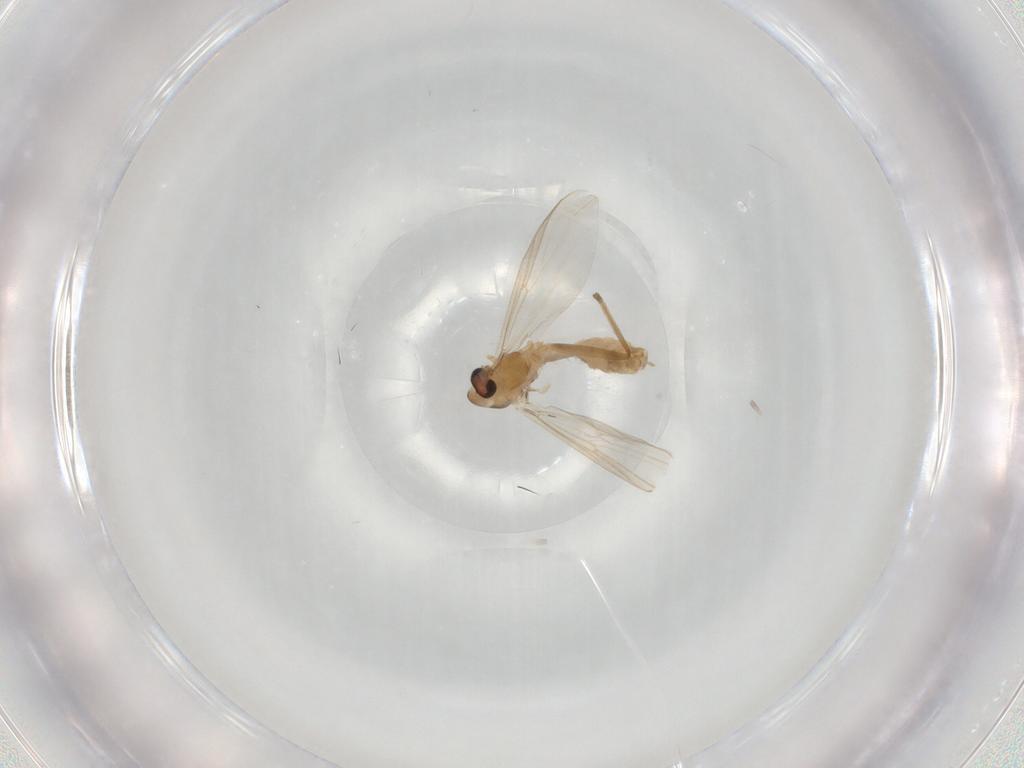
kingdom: Animalia
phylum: Arthropoda
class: Insecta
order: Diptera
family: Chironomidae
